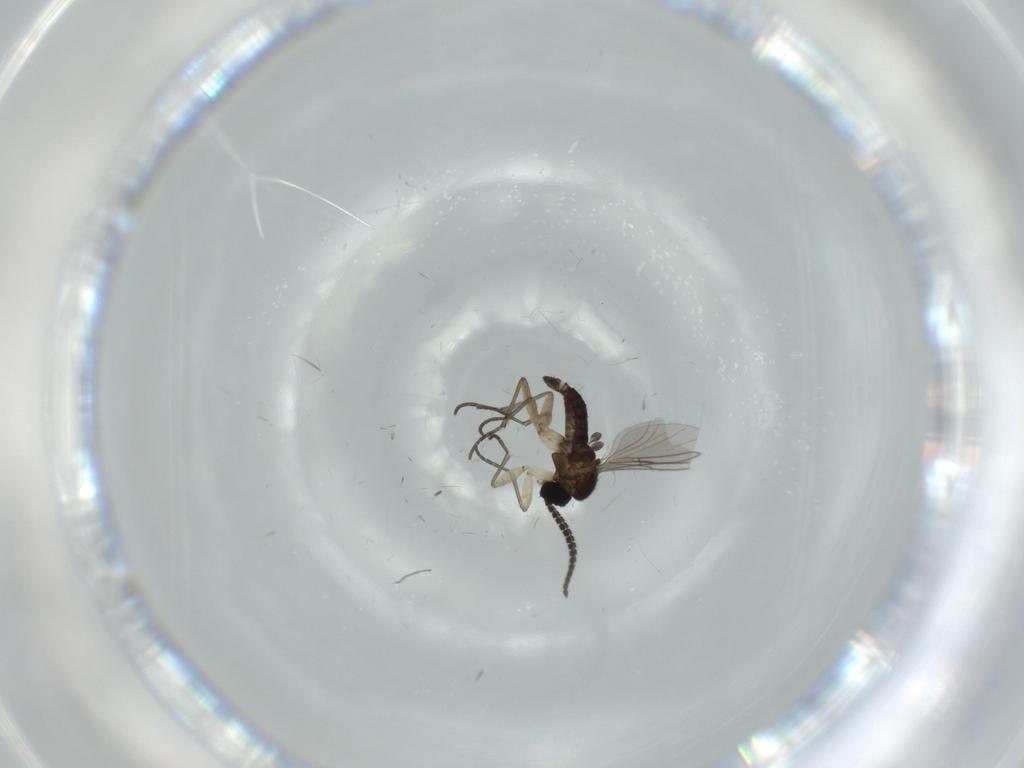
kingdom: Animalia
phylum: Arthropoda
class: Insecta
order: Diptera
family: Sciaridae
